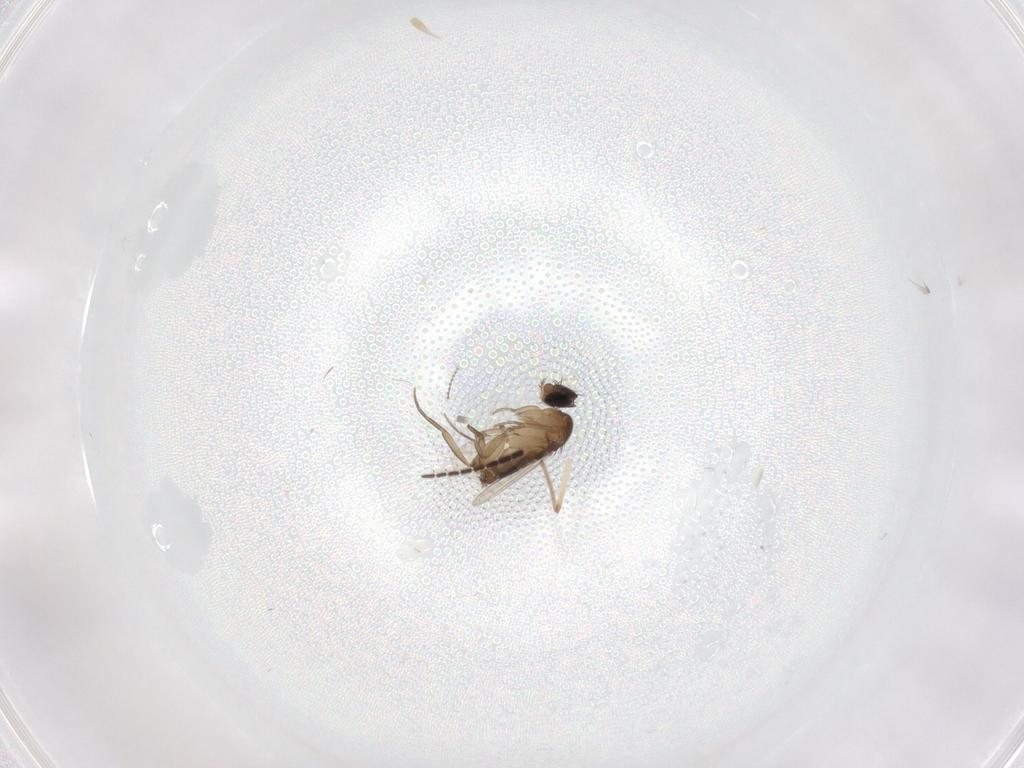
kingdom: Animalia
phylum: Arthropoda
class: Insecta
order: Diptera
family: Phoridae
